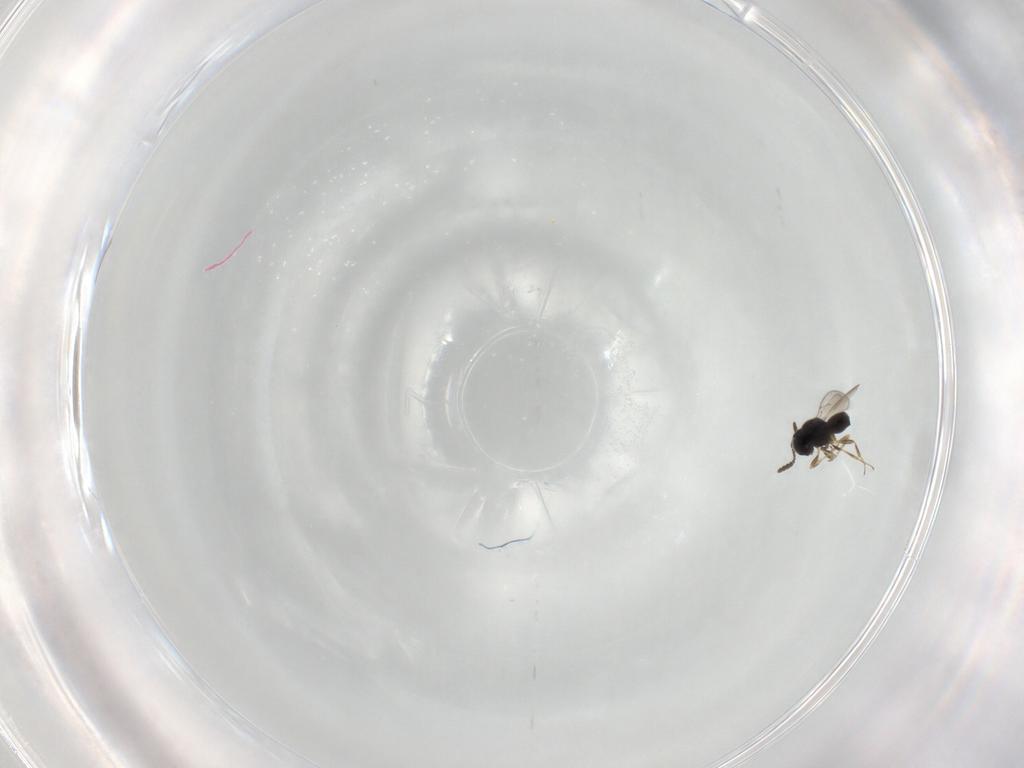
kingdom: Animalia
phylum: Arthropoda
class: Insecta
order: Hymenoptera
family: Scelionidae
